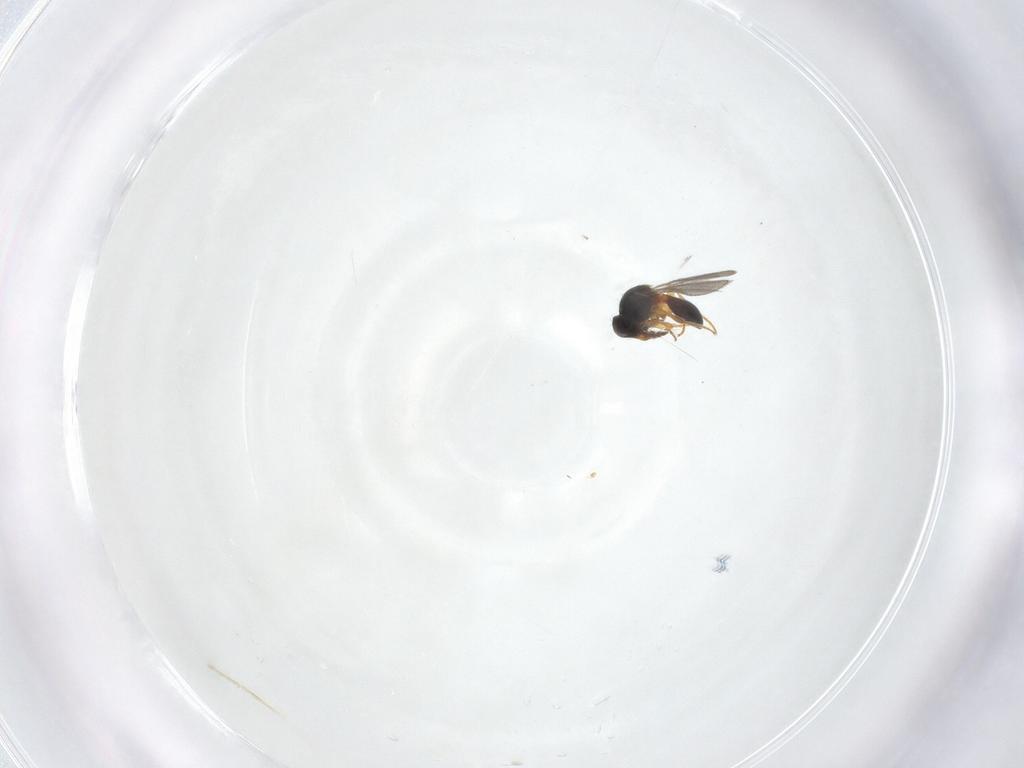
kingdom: Animalia
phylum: Arthropoda
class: Insecta
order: Hymenoptera
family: Platygastridae
